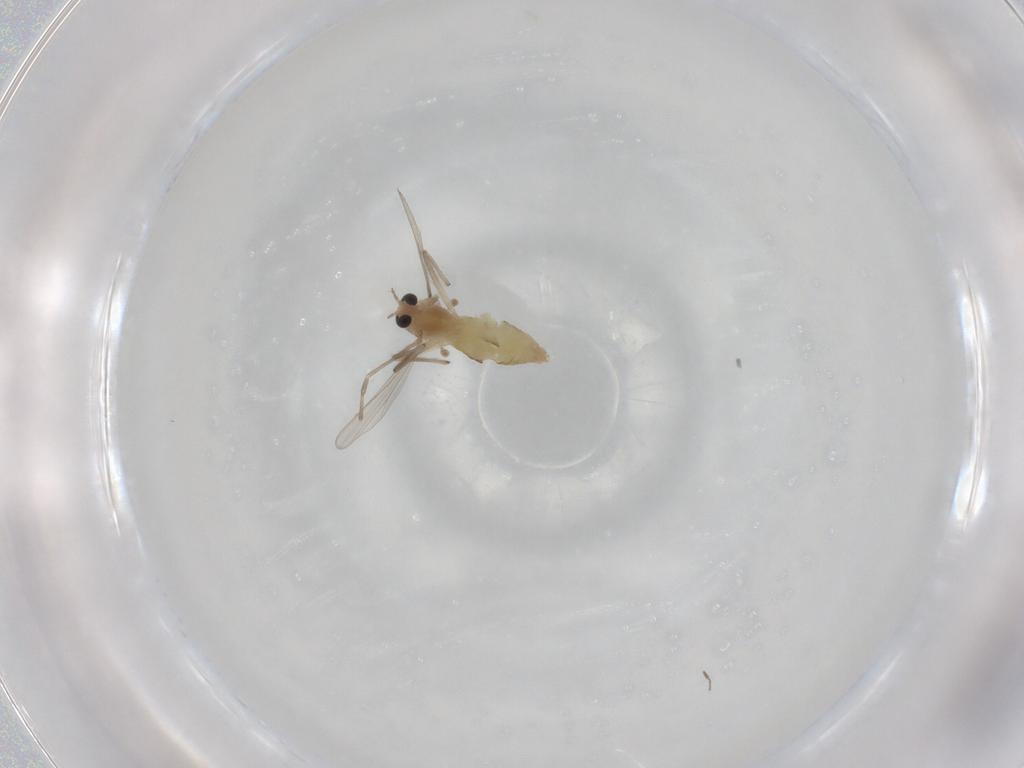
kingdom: Animalia
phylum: Arthropoda
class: Insecta
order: Diptera
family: Chironomidae
